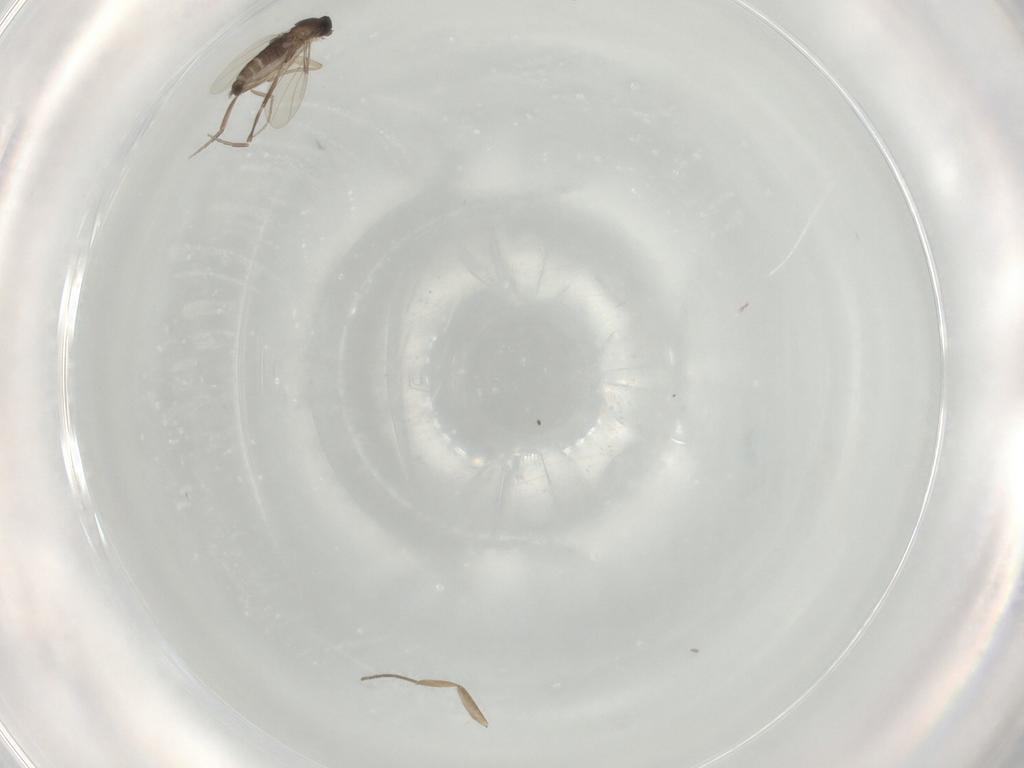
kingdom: Animalia
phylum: Arthropoda
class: Insecta
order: Diptera
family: Phoridae
